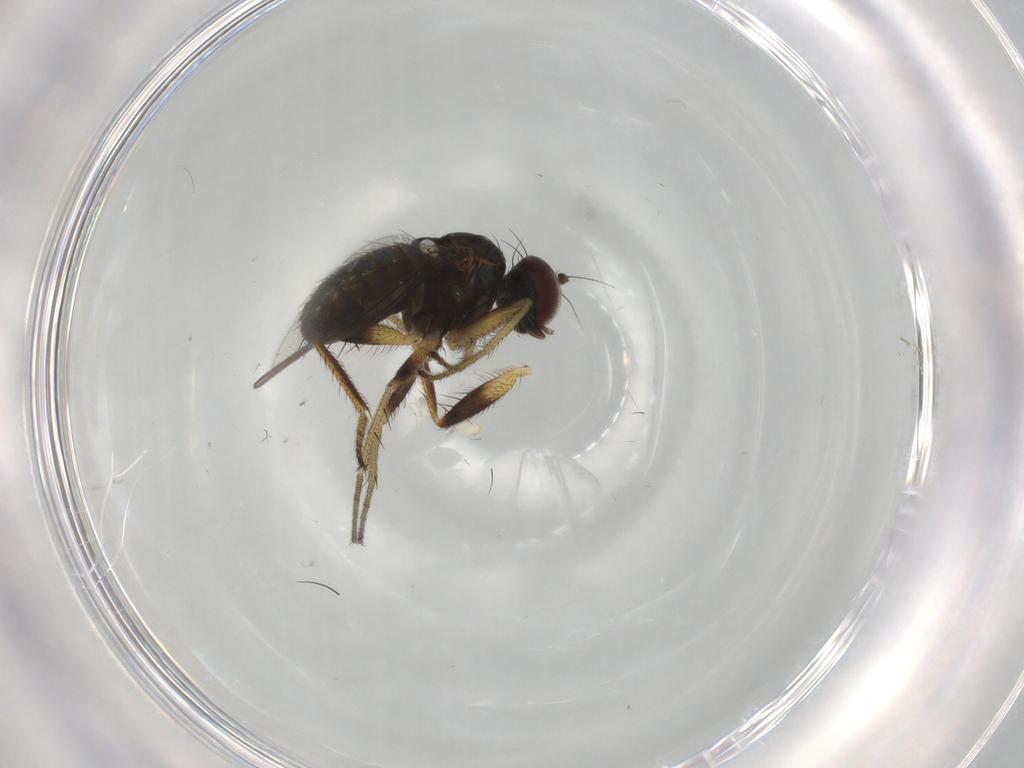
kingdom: Animalia
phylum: Arthropoda
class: Insecta
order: Diptera
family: Dolichopodidae
